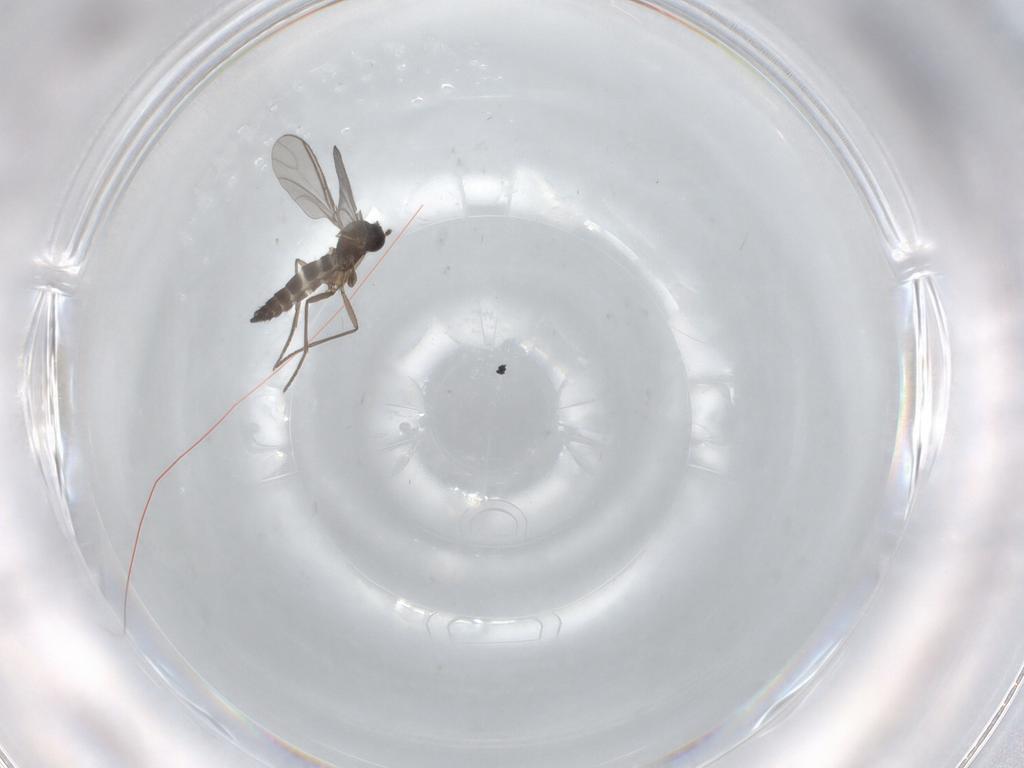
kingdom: Animalia
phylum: Arthropoda
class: Insecta
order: Diptera
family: Sciaridae
